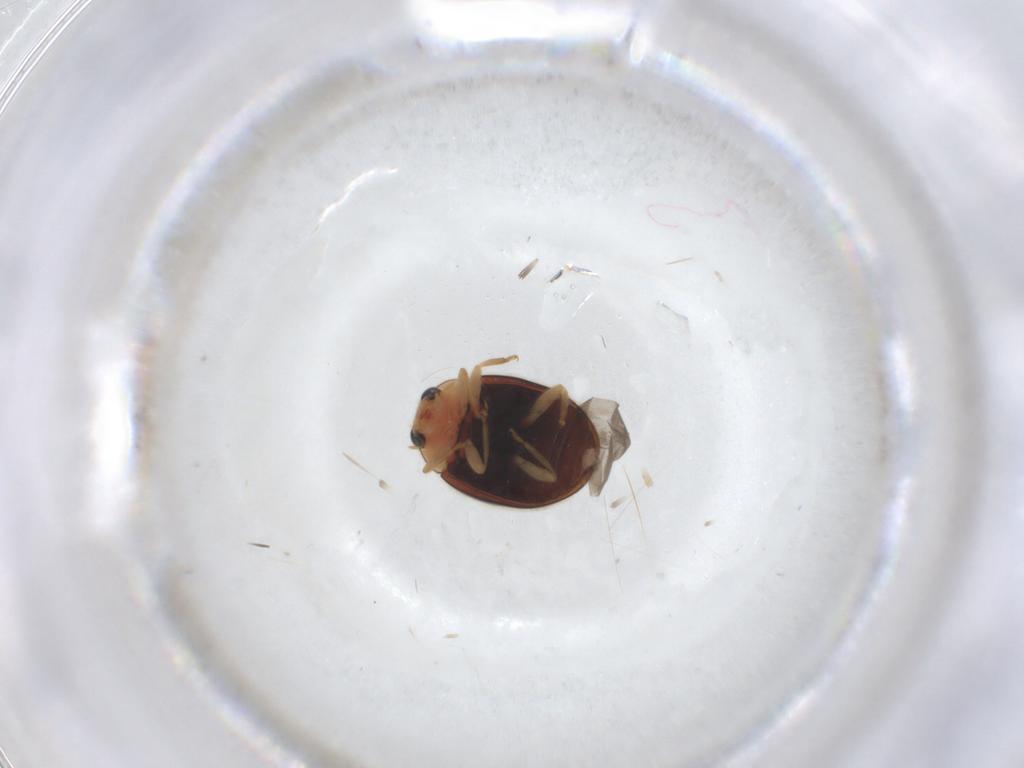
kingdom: Animalia
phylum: Arthropoda
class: Insecta
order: Coleoptera
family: Coccinellidae
